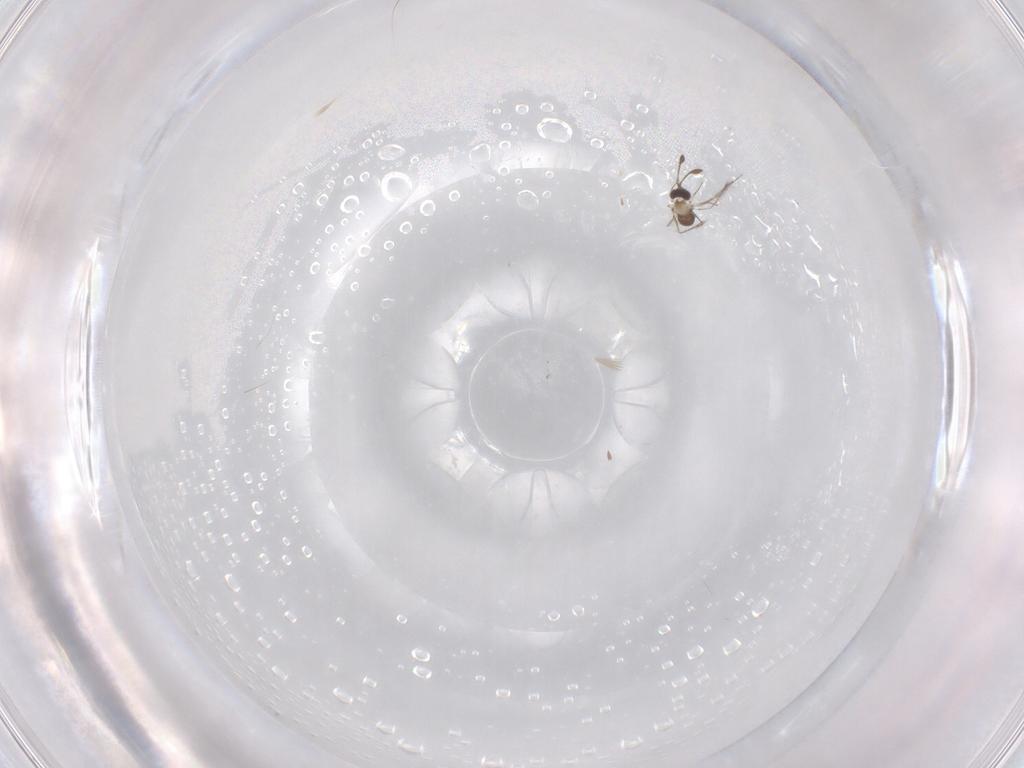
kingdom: Animalia
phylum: Arthropoda
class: Insecta
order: Hymenoptera
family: Mymaridae
